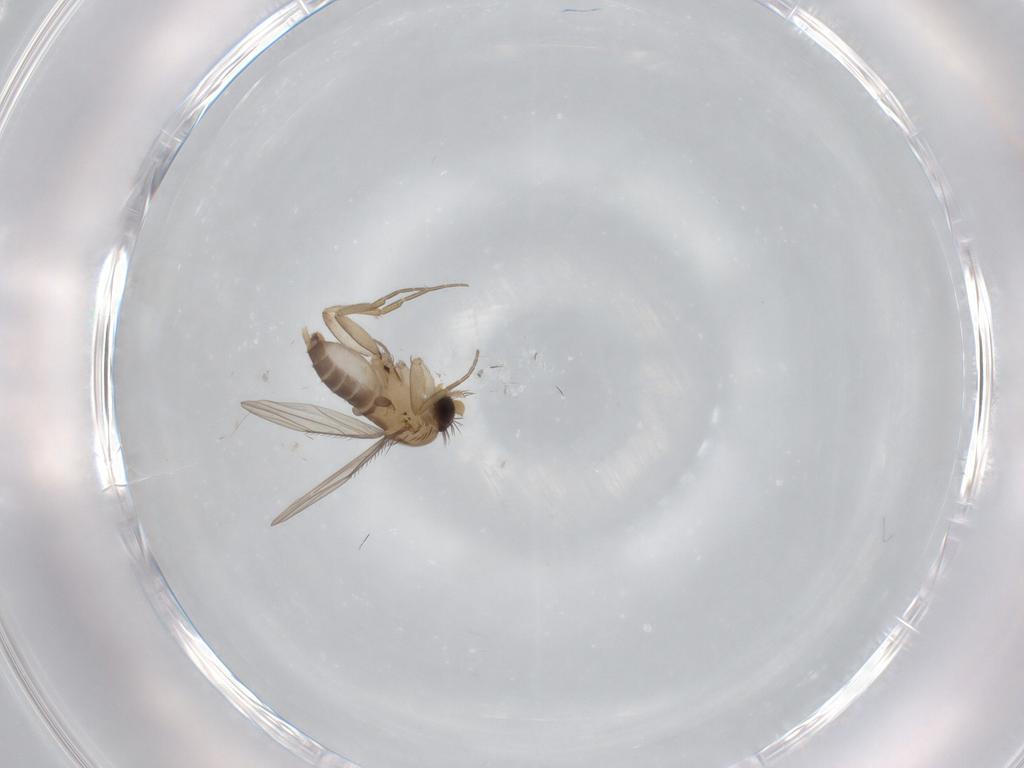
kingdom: Animalia
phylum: Arthropoda
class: Insecta
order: Diptera
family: Phoridae
